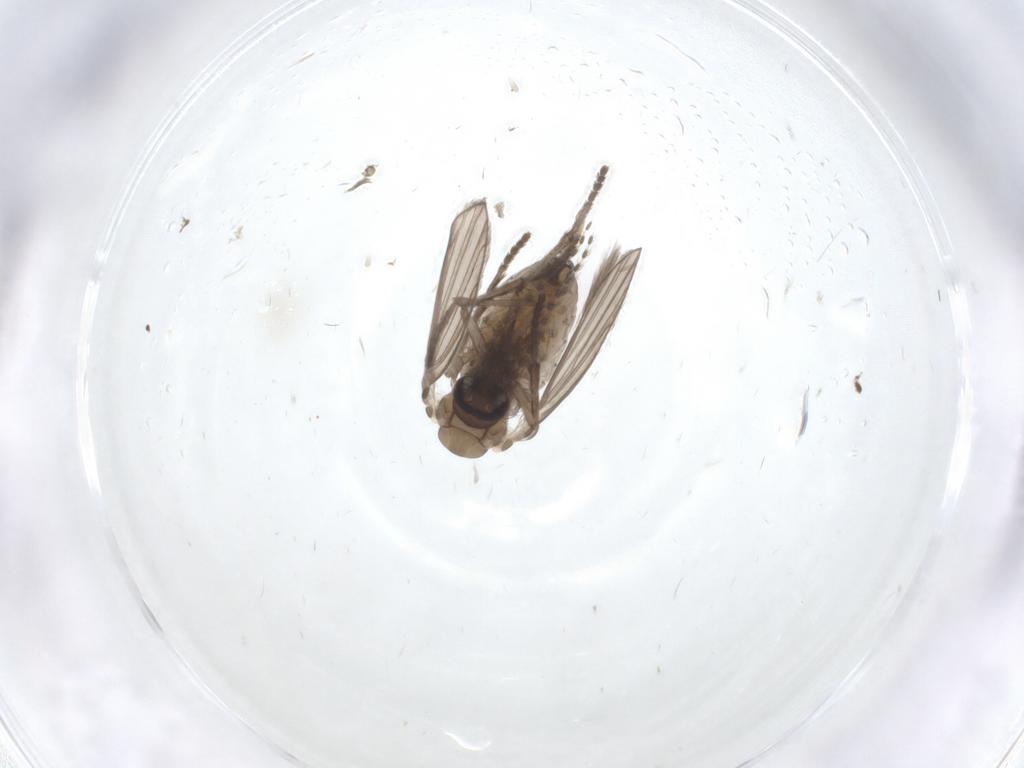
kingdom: Animalia
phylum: Arthropoda
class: Insecta
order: Diptera
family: Psychodidae
